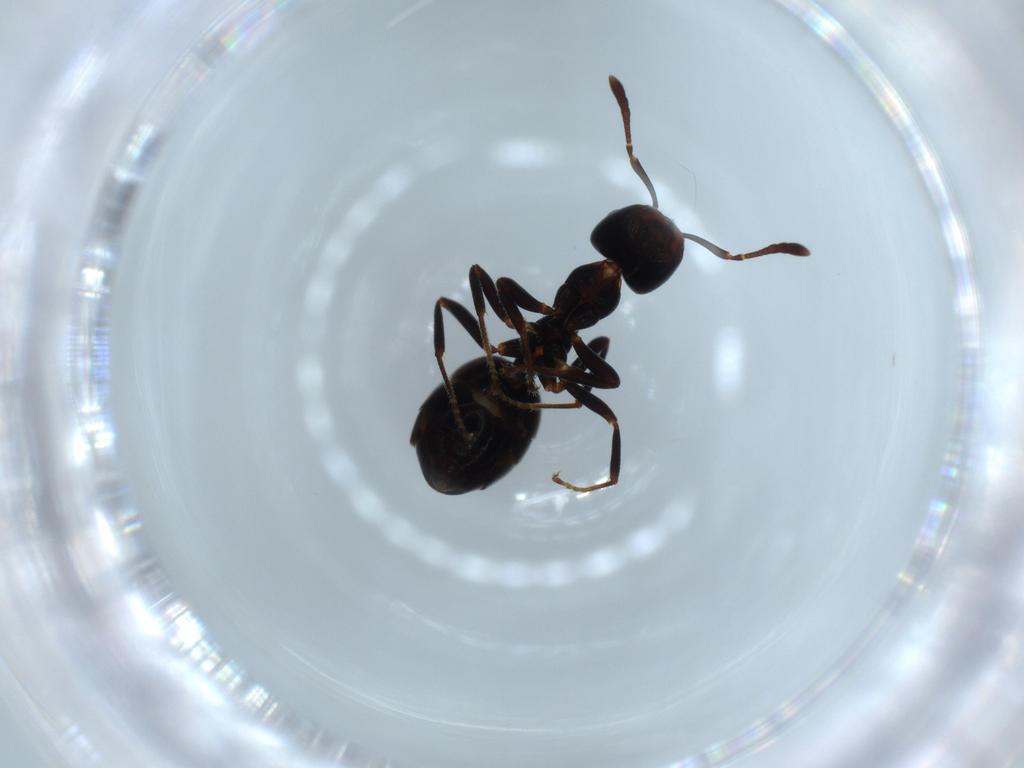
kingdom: Animalia
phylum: Arthropoda
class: Insecta
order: Hymenoptera
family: Formicidae
